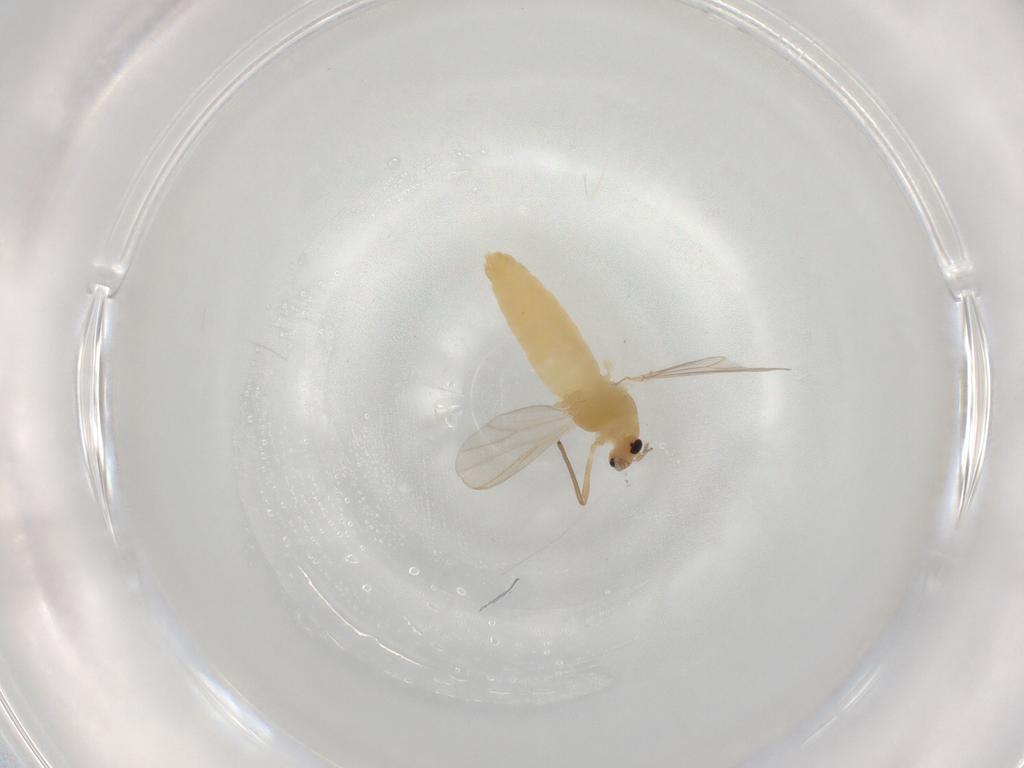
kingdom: Animalia
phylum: Arthropoda
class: Insecta
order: Diptera
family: Chironomidae
